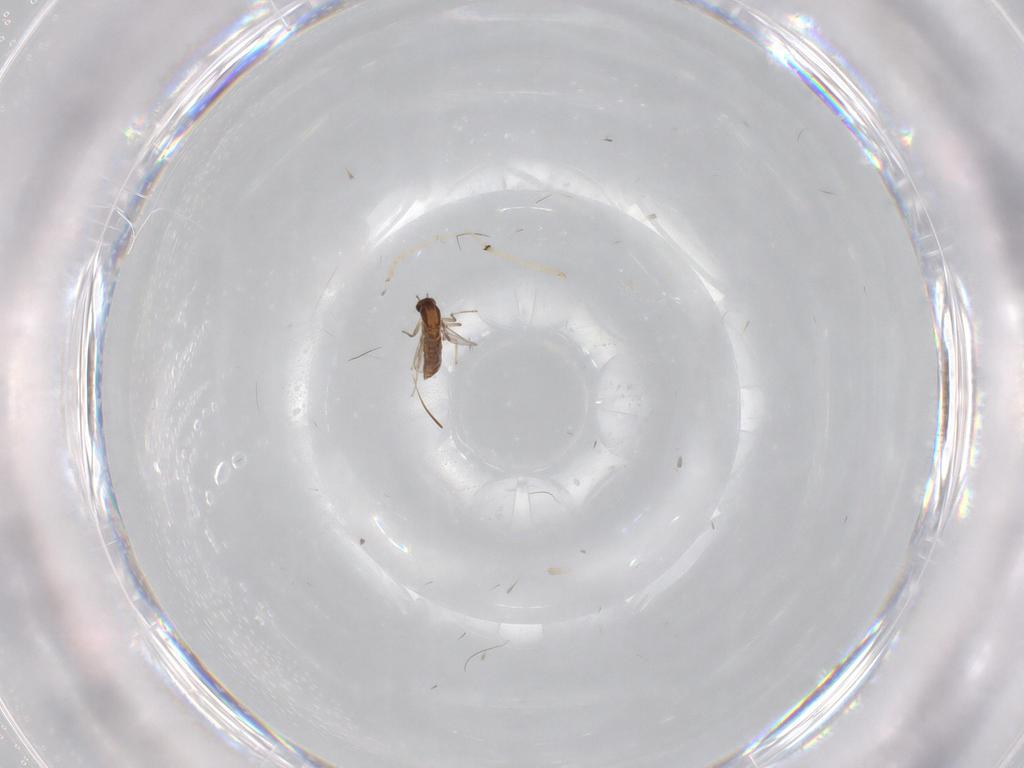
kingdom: Animalia
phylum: Arthropoda
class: Insecta
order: Diptera
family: Chironomidae
